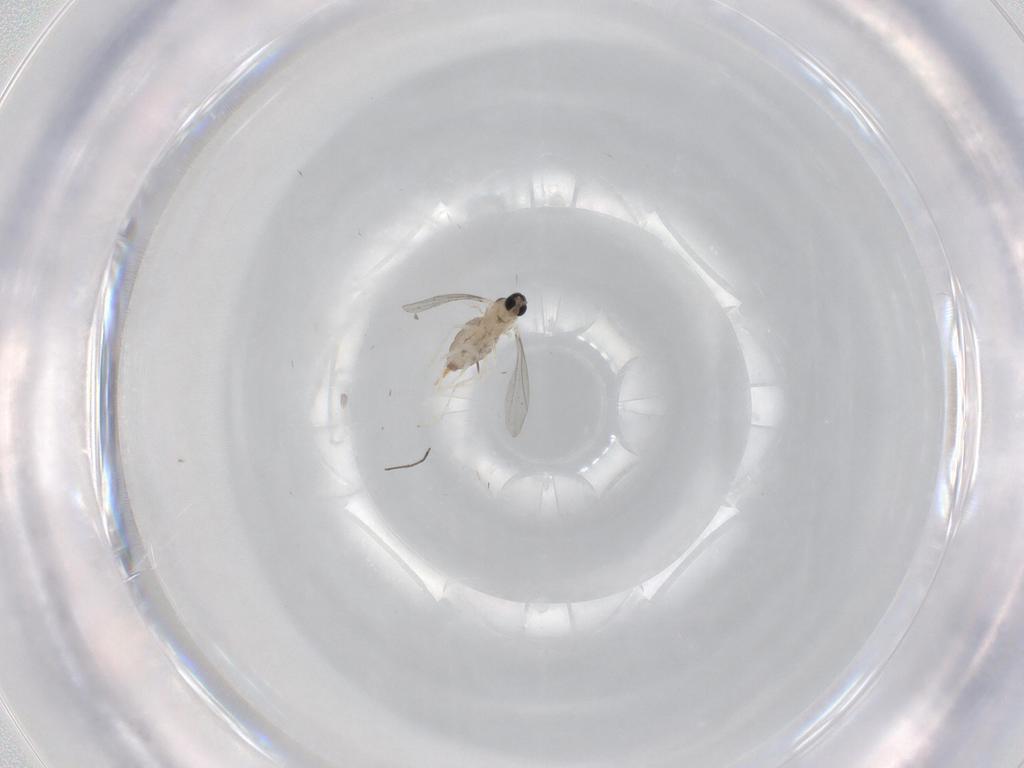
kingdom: Animalia
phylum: Arthropoda
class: Insecta
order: Diptera
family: Cecidomyiidae
